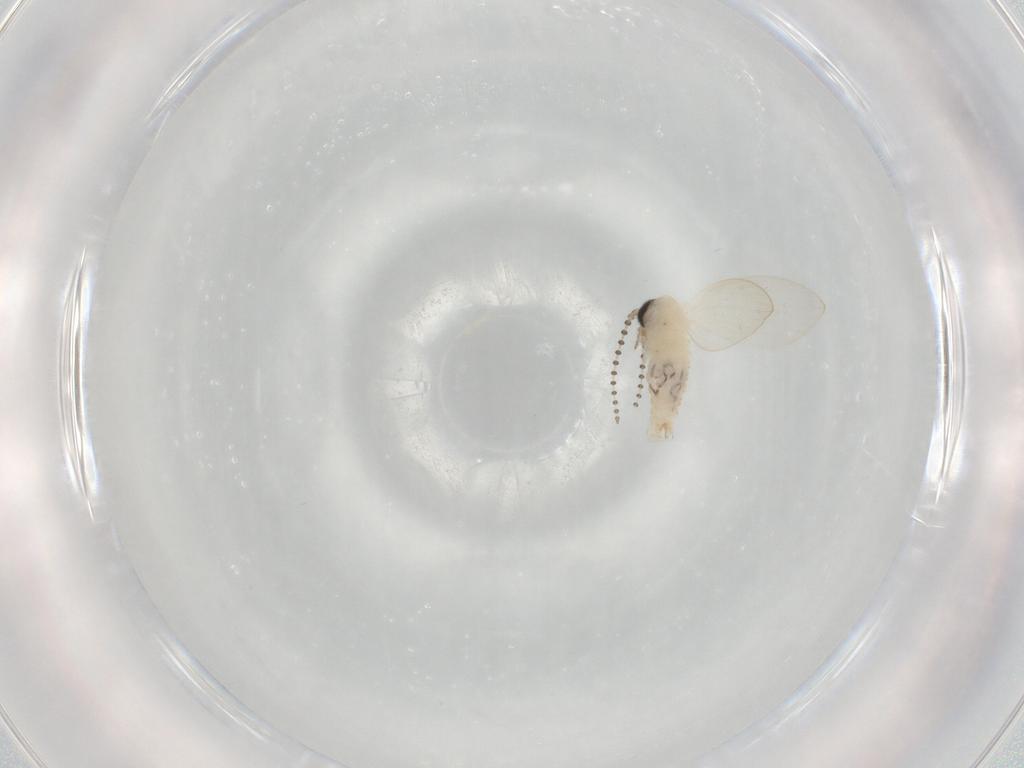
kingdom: Animalia
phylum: Arthropoda
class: Insecta
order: Diptera
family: Psychodidae
